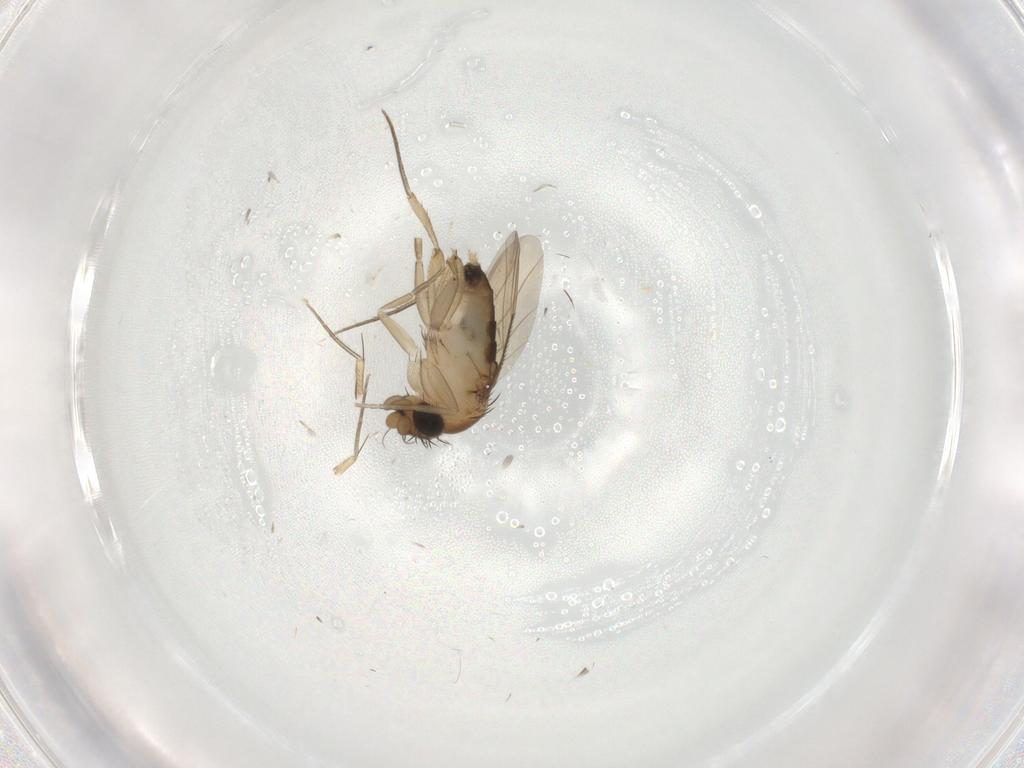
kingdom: Animalia
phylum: Arthropoda
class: Insecta
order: Diptera
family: Phoridae
